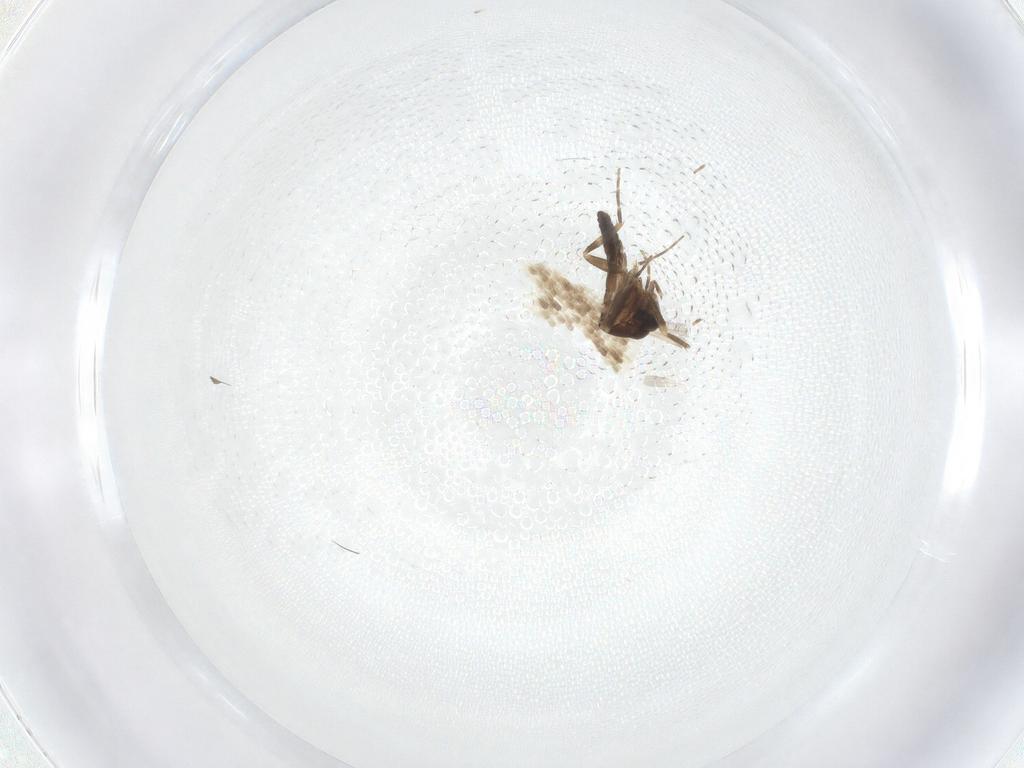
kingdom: Animalia
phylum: Arthropoda
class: Insecta
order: Diptera
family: Ceratopogonidae
